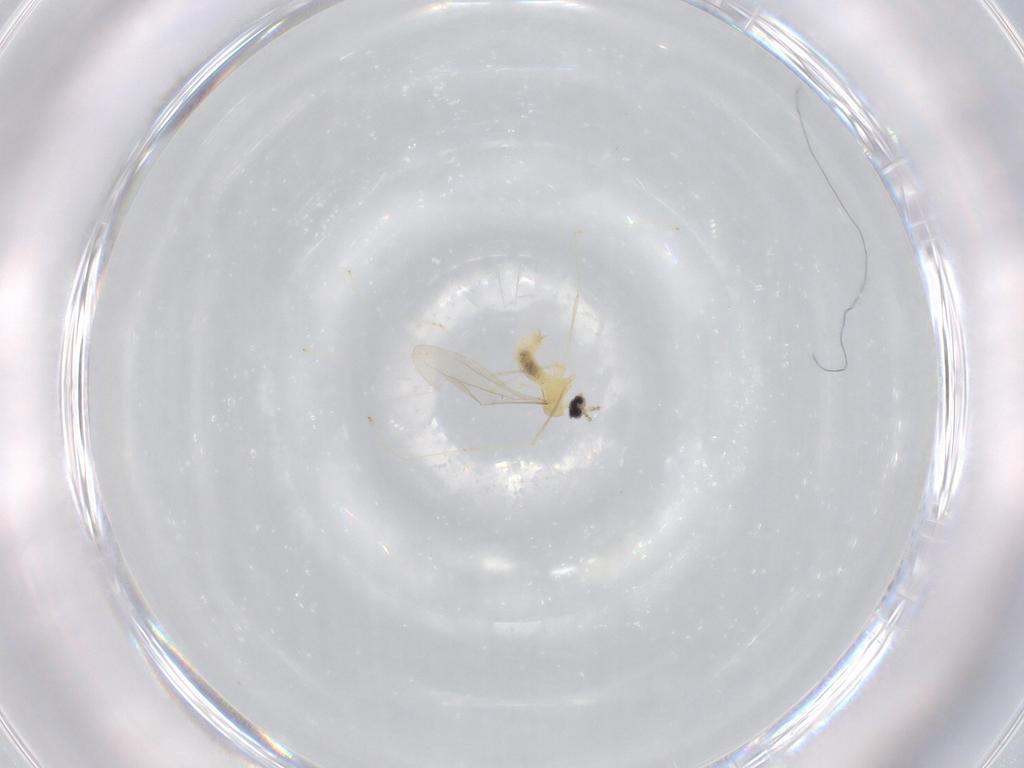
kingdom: Animalia
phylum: Arthropoda
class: Insecta
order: Diptera
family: Cecidomyiidae
